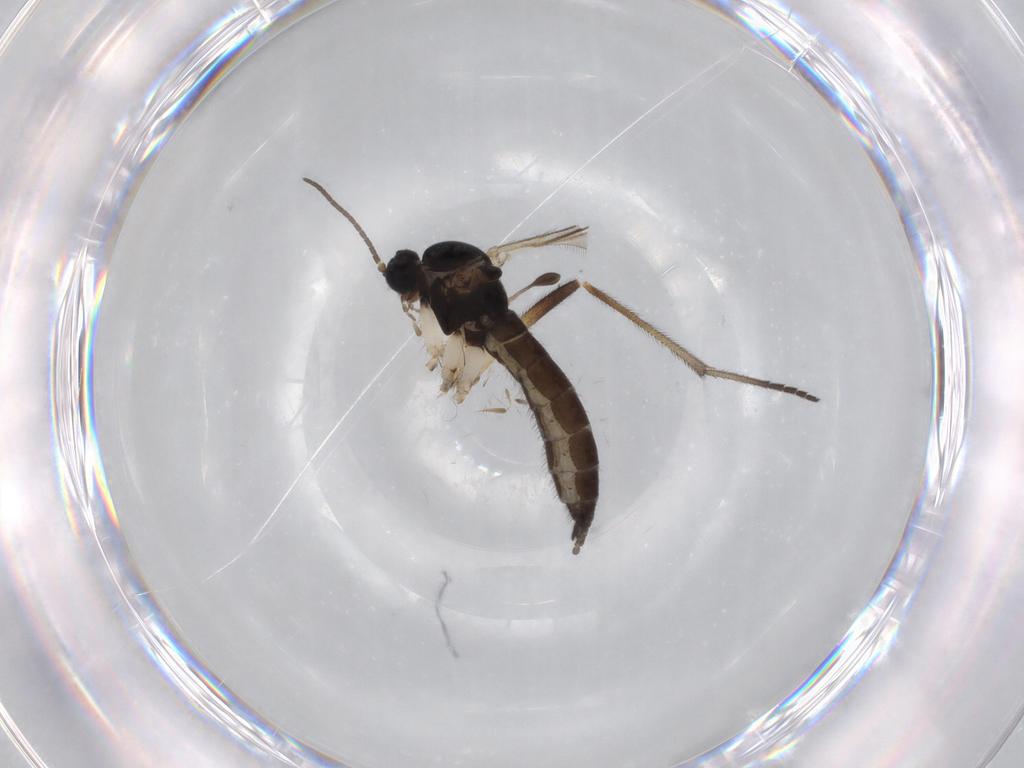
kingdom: Animalia
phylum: Arthropoda
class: Insecta
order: Diptera
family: Sciaridae
